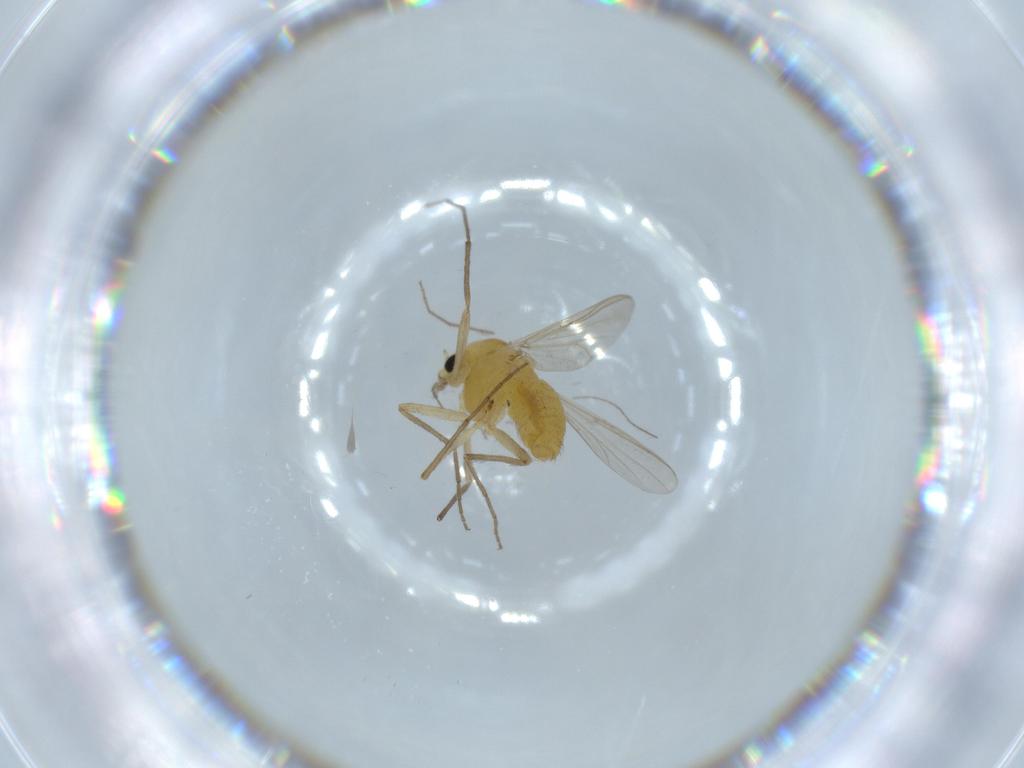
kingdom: Animalia
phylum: Arthropoda
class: Insecta
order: Diptera
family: Chironomidae
